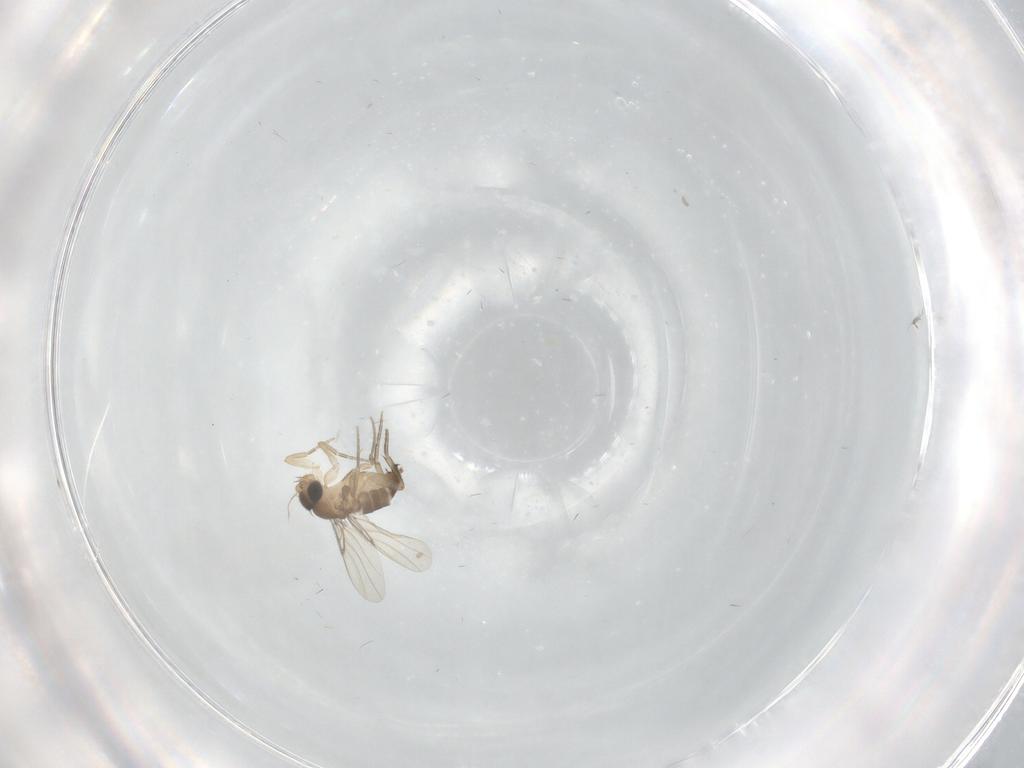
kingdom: Animalia
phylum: Arthropoda
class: Insecta
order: Diptera
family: Phoridae
